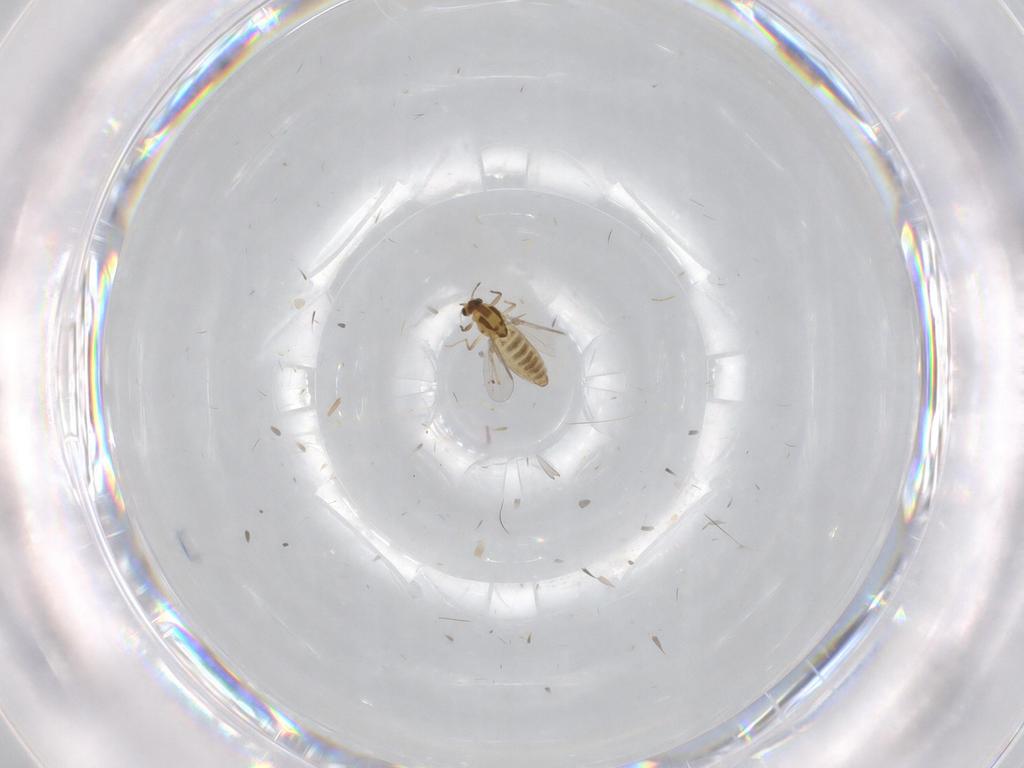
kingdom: Animalia
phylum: Arthropoda
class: Insecta
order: Diptera
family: Chironomidae
